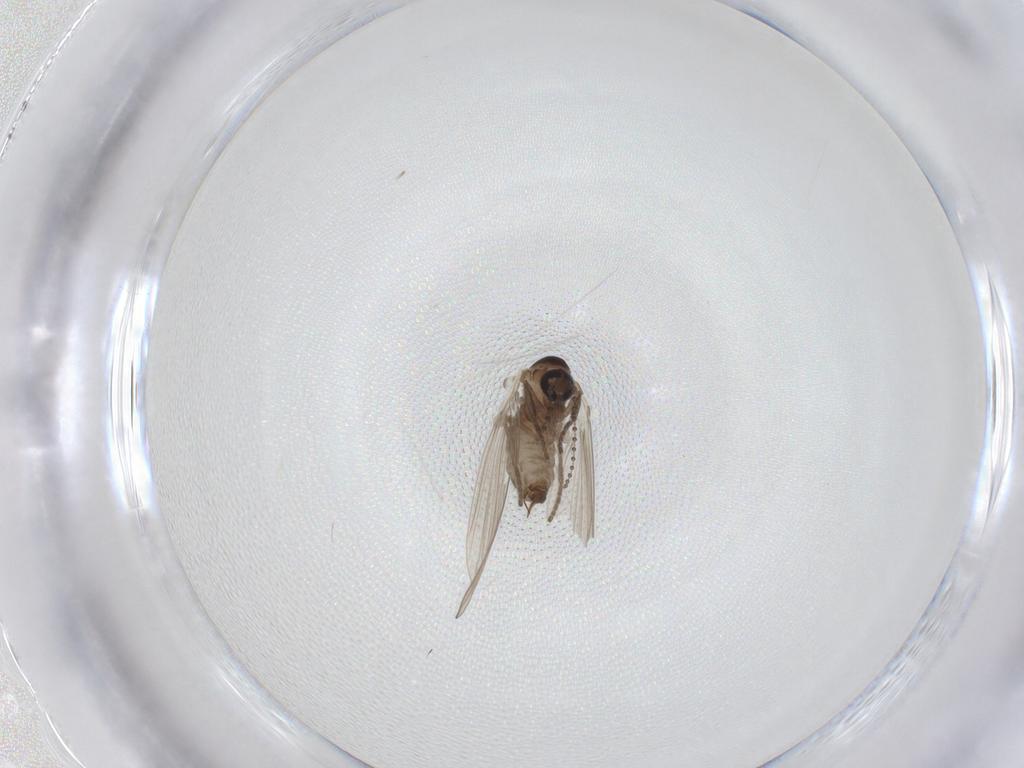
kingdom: Animalia
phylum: Arthropoda
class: Insecta
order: Diptera
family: Psychodidae
